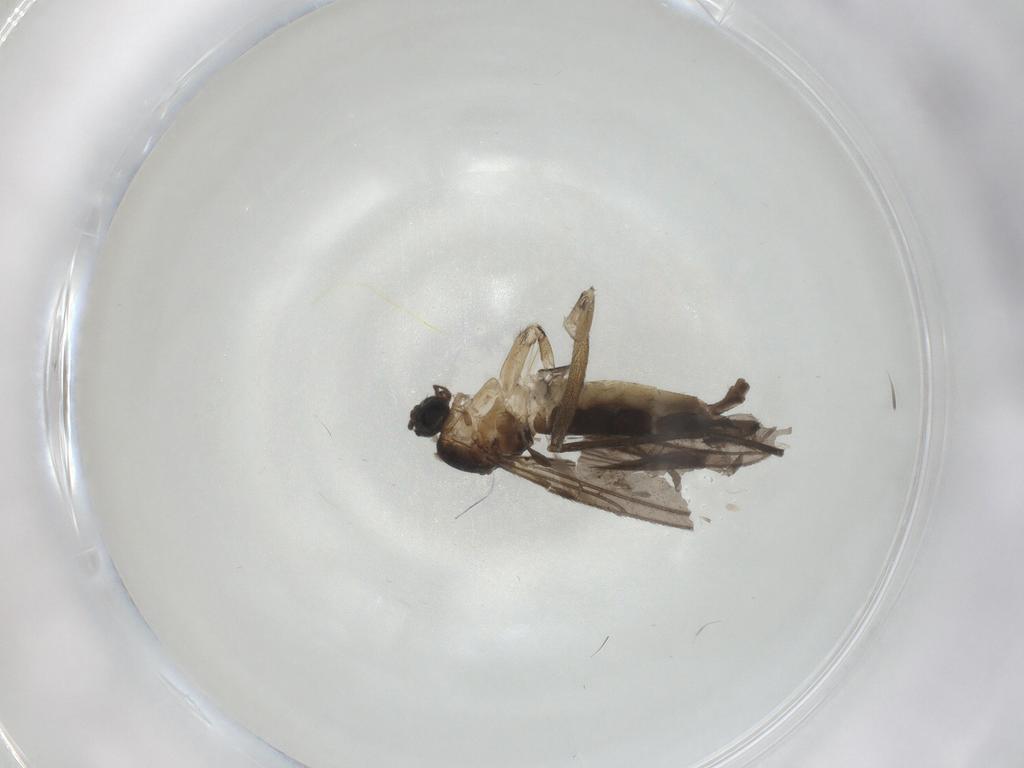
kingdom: Animalia
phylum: Arthropoda
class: Insecta
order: Diptera
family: Sciaridae
